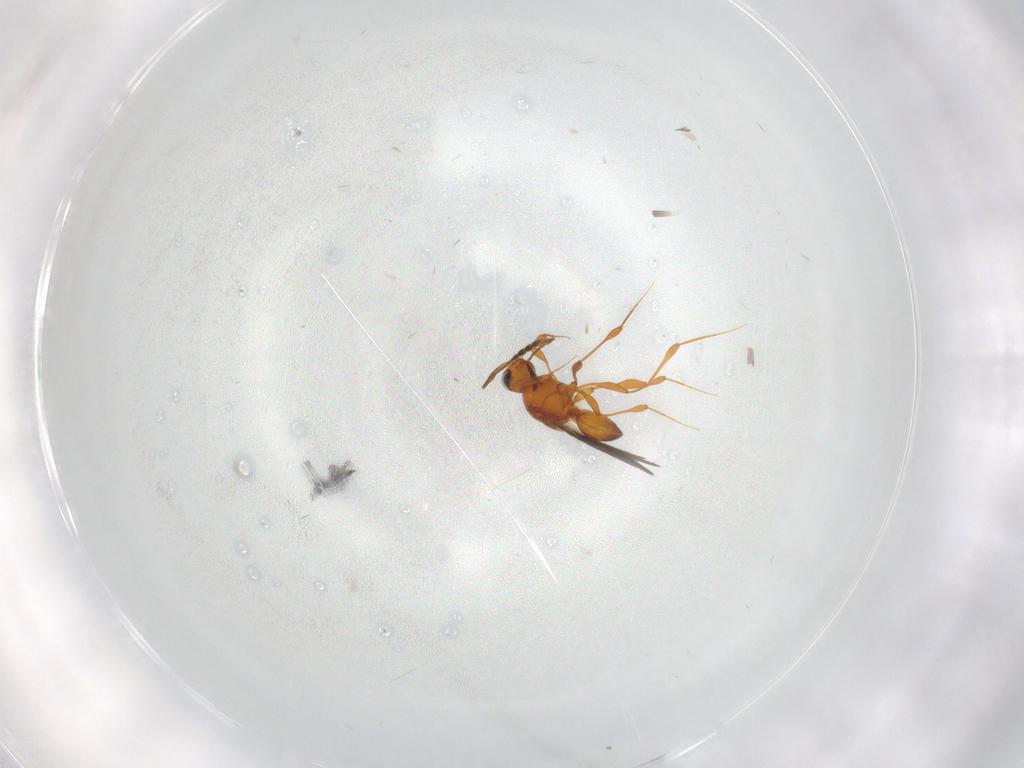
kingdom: Animalia
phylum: Arthropoda
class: Insecta
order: Hymenoptera
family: Platygastridae
